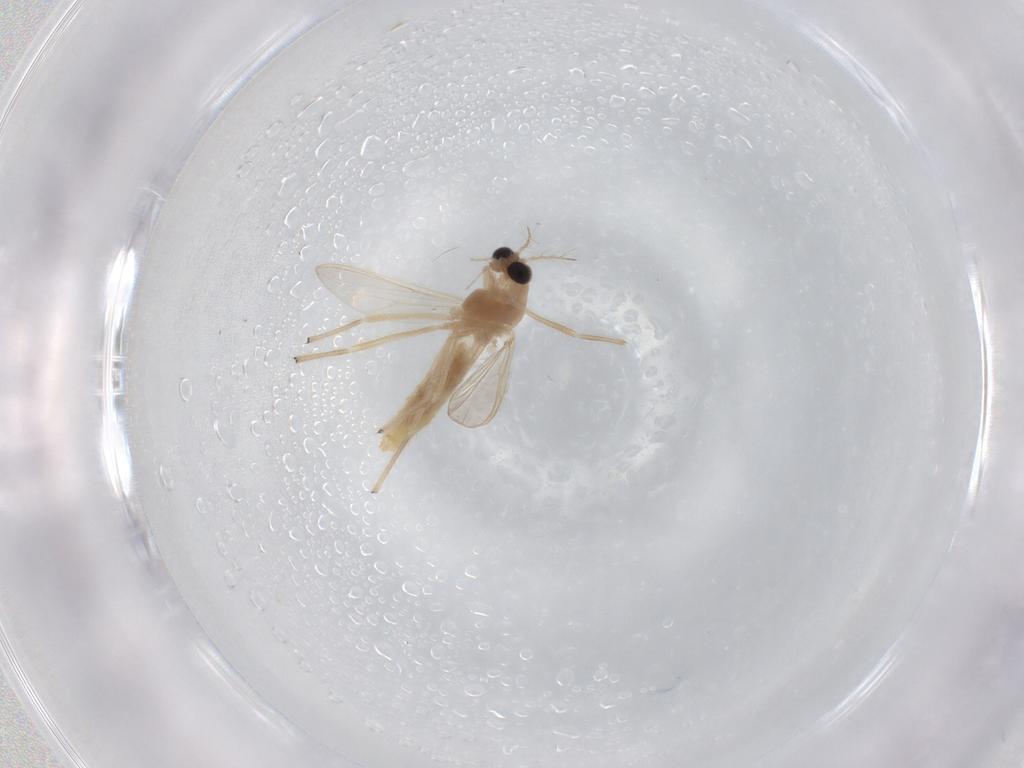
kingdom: Animalia
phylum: Arthropoda
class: Insecta
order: Diptera
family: Chironomidae
